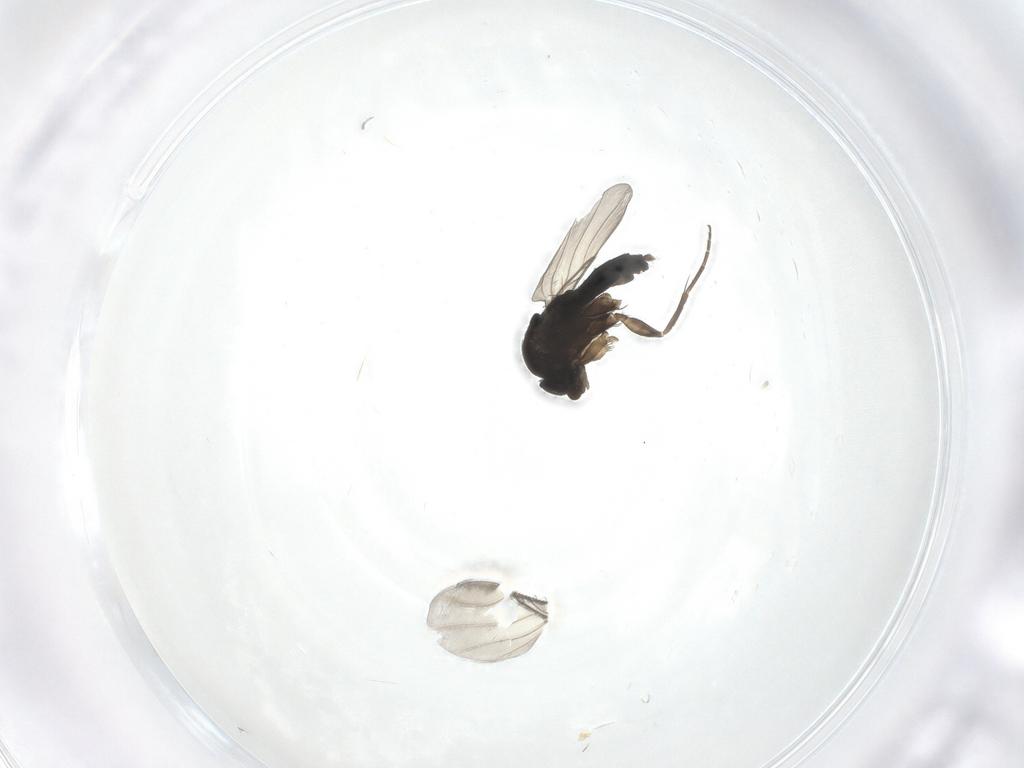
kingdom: Animalia
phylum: Arthropoda
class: Insecta
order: Diptera
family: Phoridae
